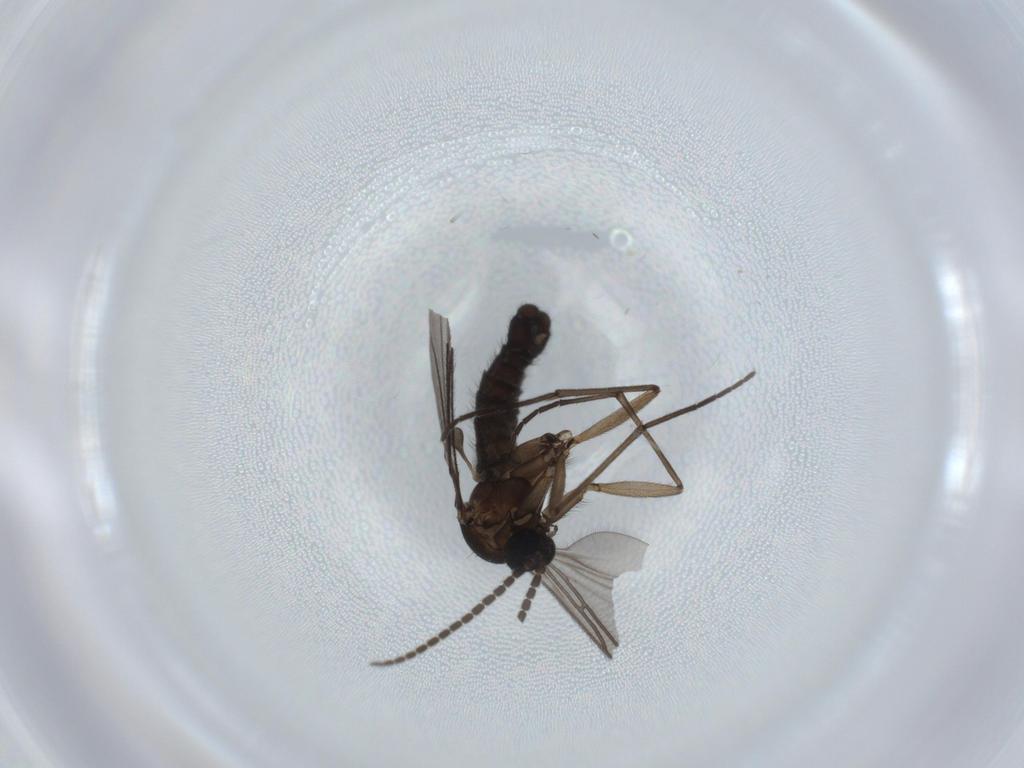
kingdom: Animalia
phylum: Arthropoda
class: Insecta
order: Diptera
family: Sciaridae
